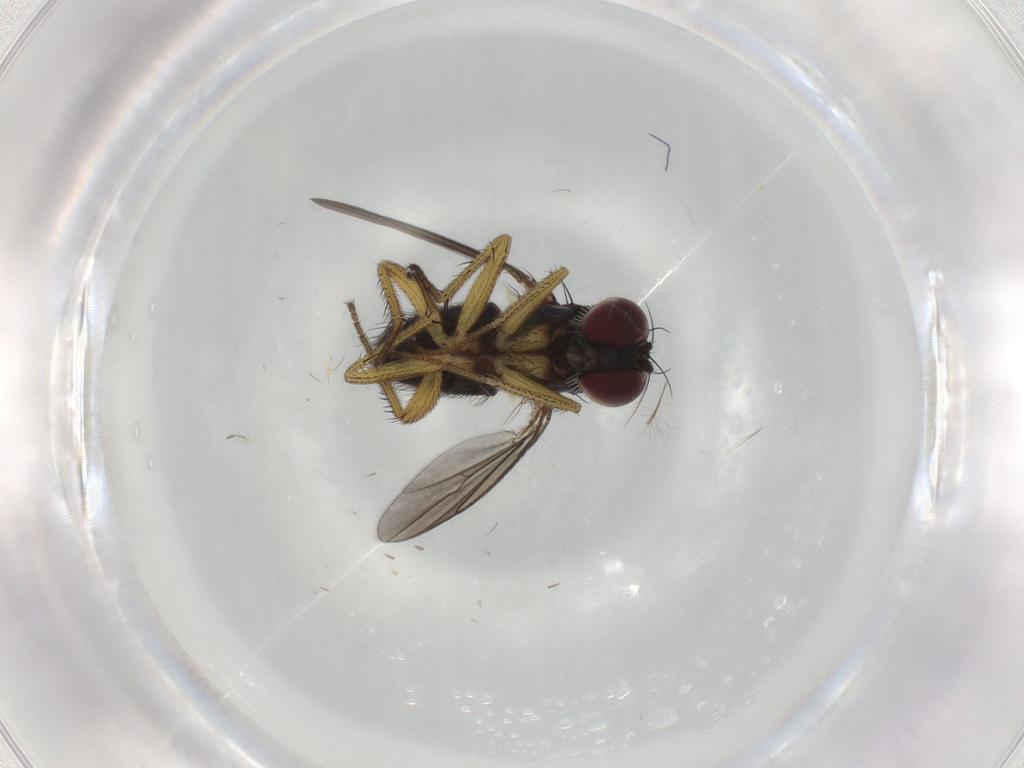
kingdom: Animalia
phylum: Arthropoda
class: Insecta
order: Diptera
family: Dolichopodidae
